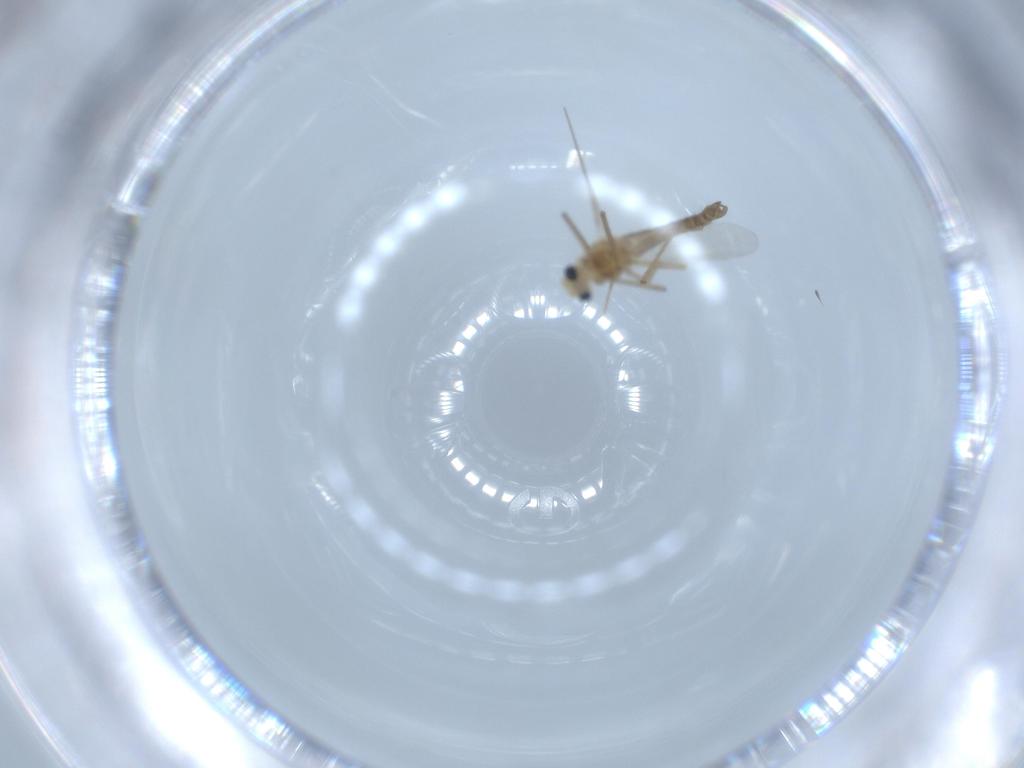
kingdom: Animalia
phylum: Arthropoda
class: Insecta
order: Diptera
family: Chironomidae
